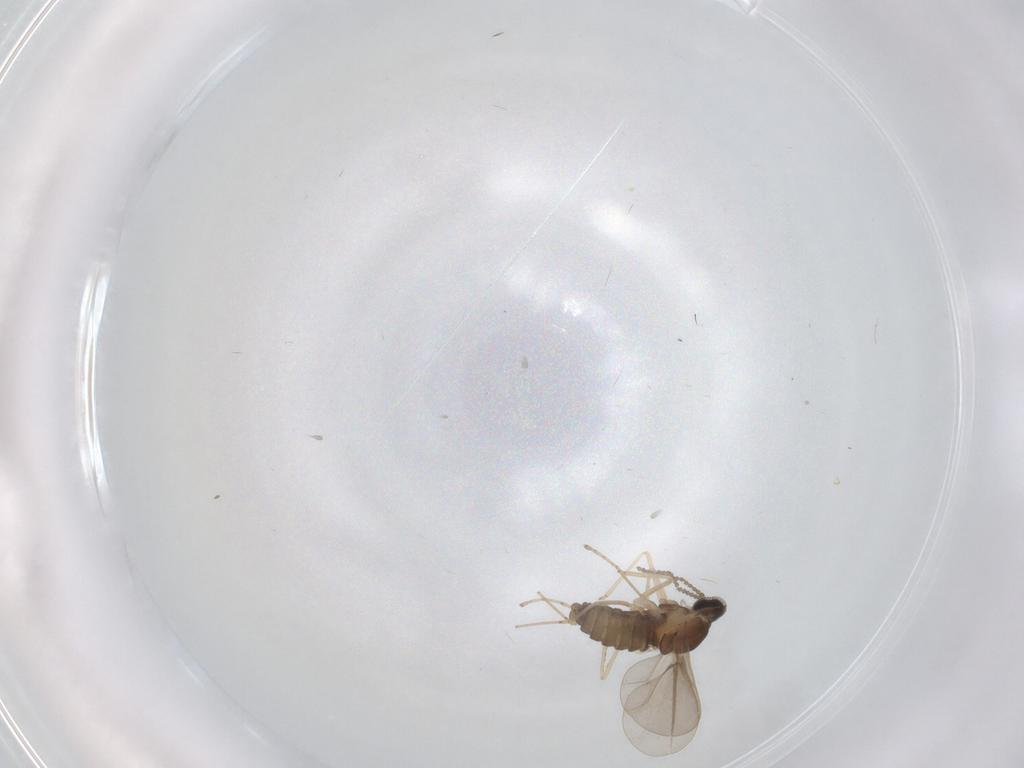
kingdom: Animalia
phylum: Arthropoda
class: Insecta
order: Diptera
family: Cecidomyiidae
